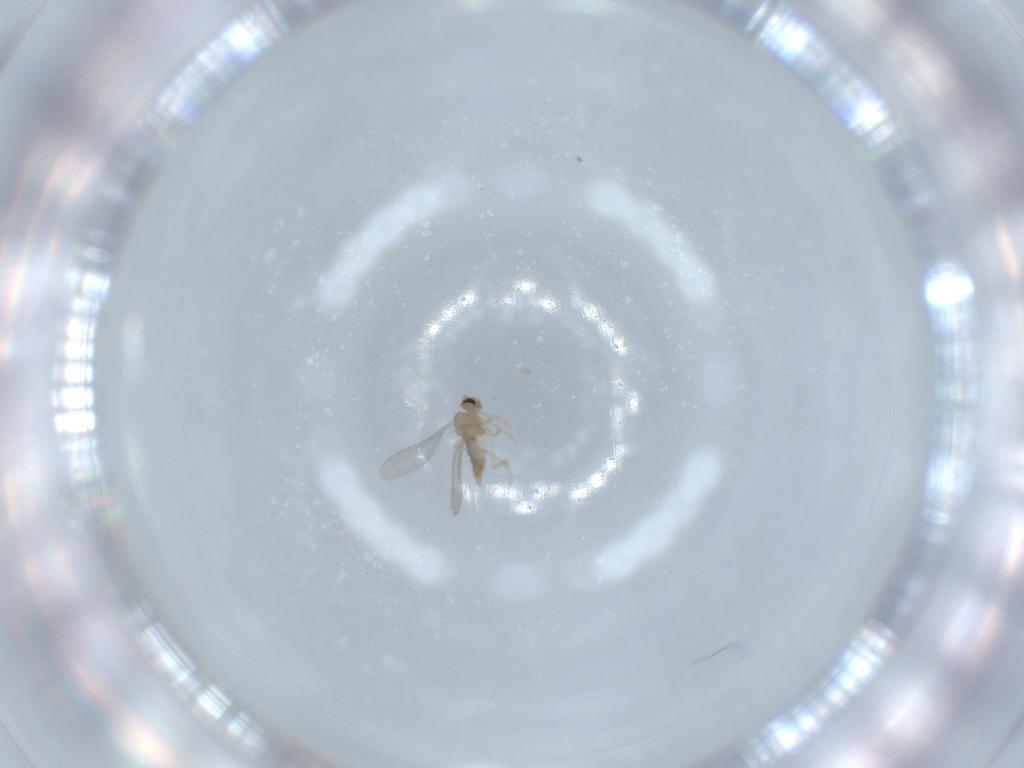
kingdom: Animalia
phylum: Arthropoda
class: Insecta
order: Diptera
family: Cecidomyiidae
